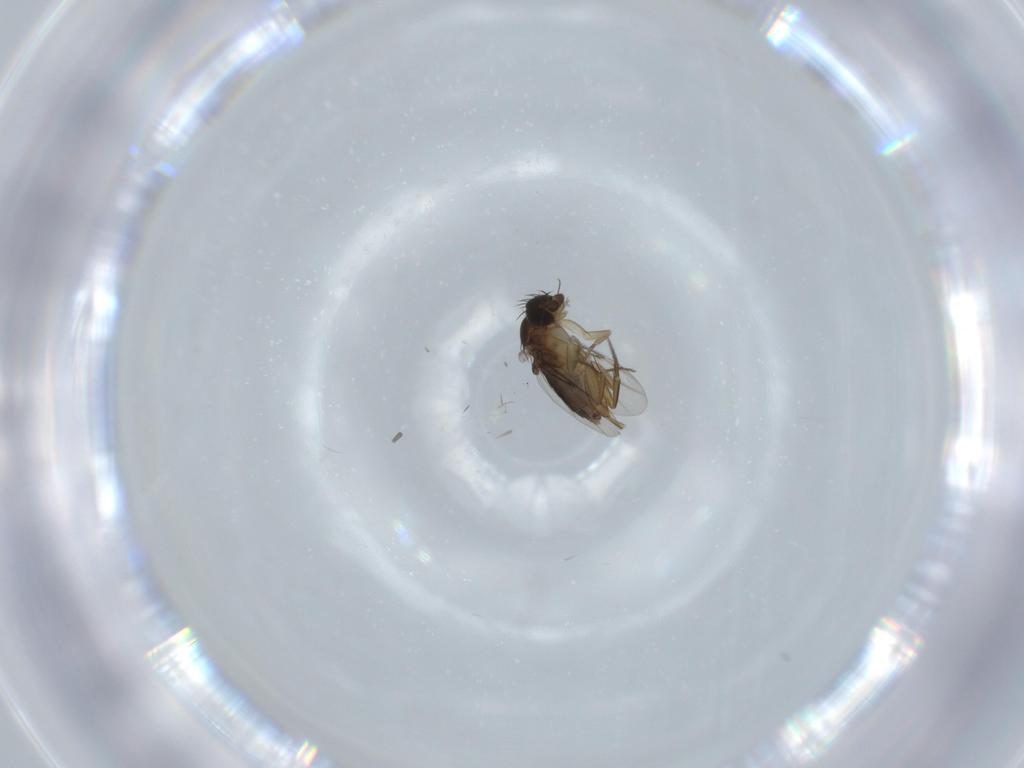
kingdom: Animalia
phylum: Arthropoda
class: Insecta
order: Diptera
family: Phoridae
